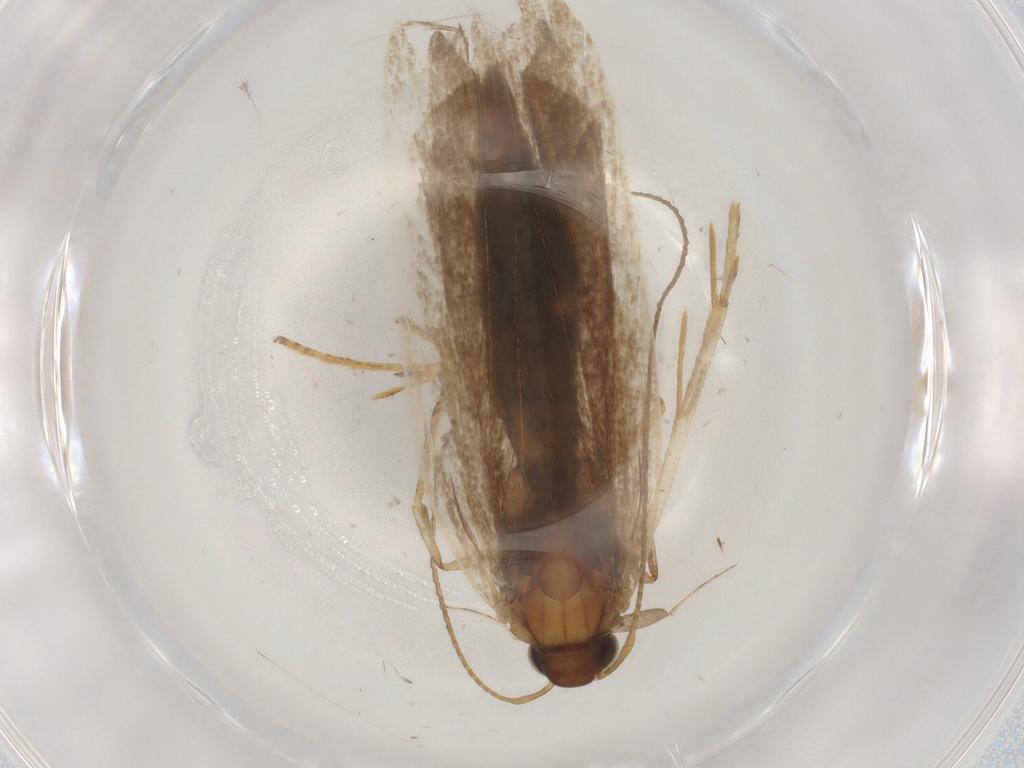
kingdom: Animalia
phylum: Arthropoda
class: Insecta
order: Lepidoptera
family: Gelechiidae
